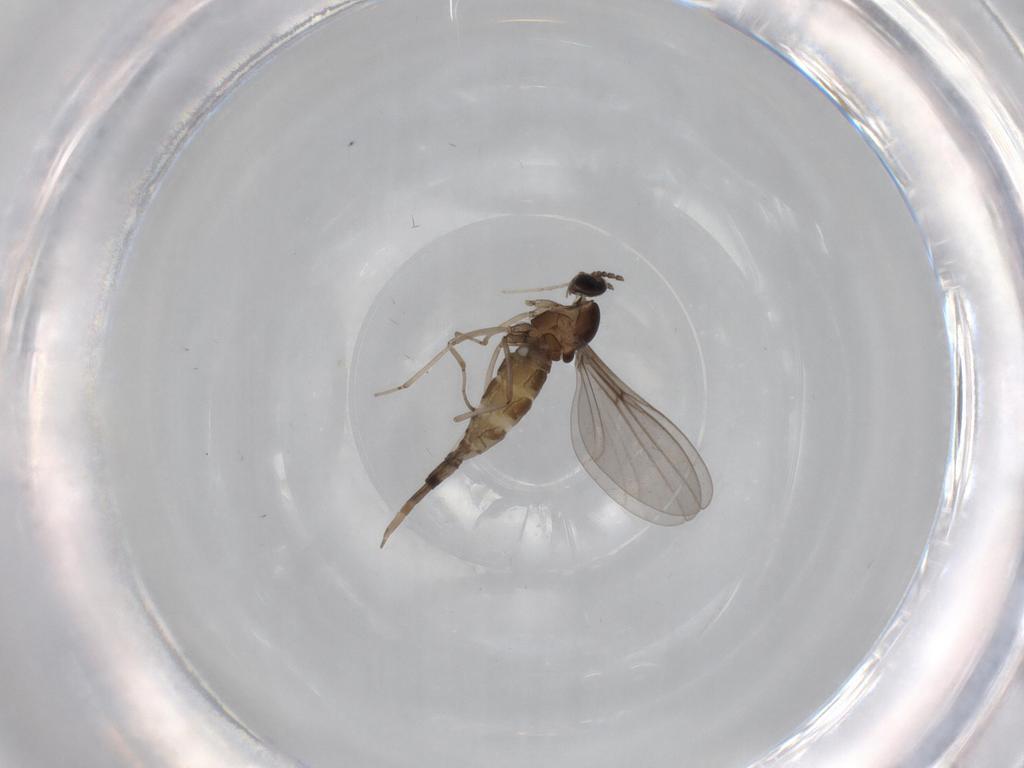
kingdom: Animalia
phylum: Arthropoda
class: Insecta
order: Diptera
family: Cecidomyiidae
